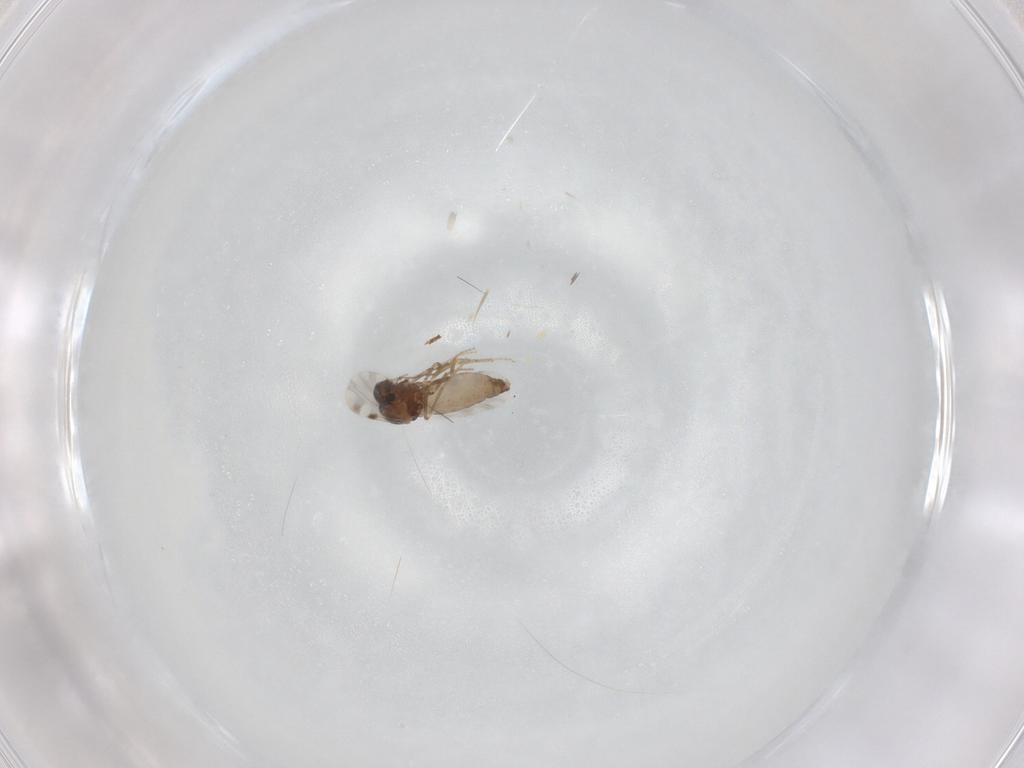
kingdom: Animalia
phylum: Arthropoda
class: Insecta
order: Diptera
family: Ceratopogonidae
